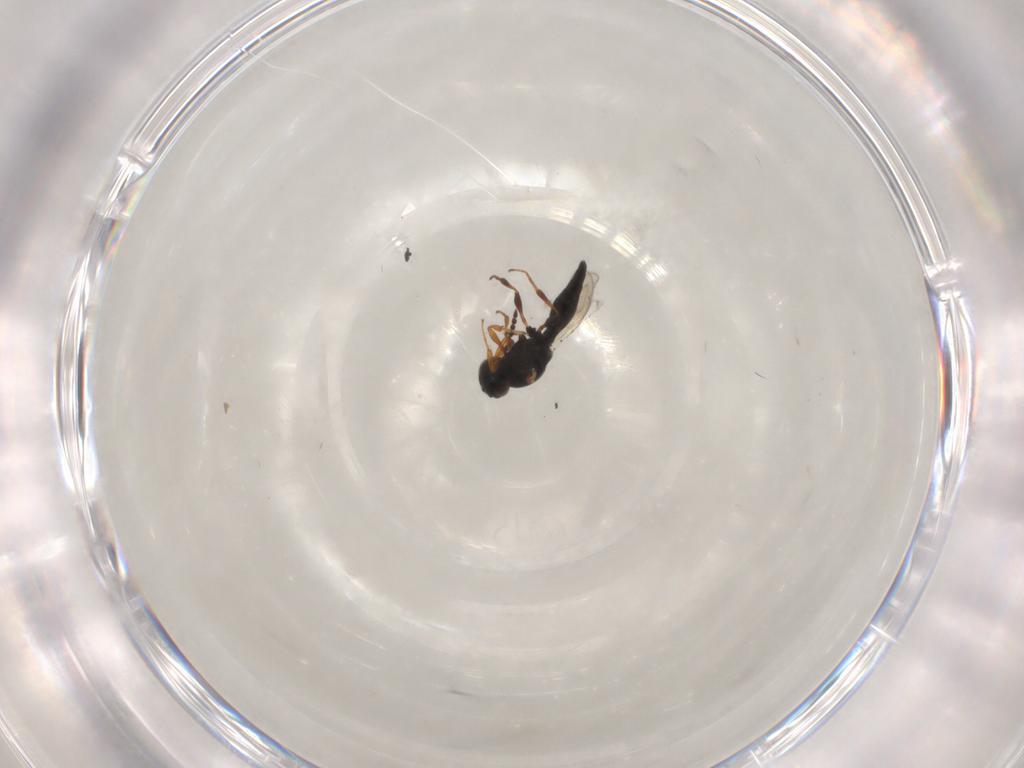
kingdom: Animalia
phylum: Arthropoda
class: Insecta
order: Hymenoptera
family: Platygastridae
